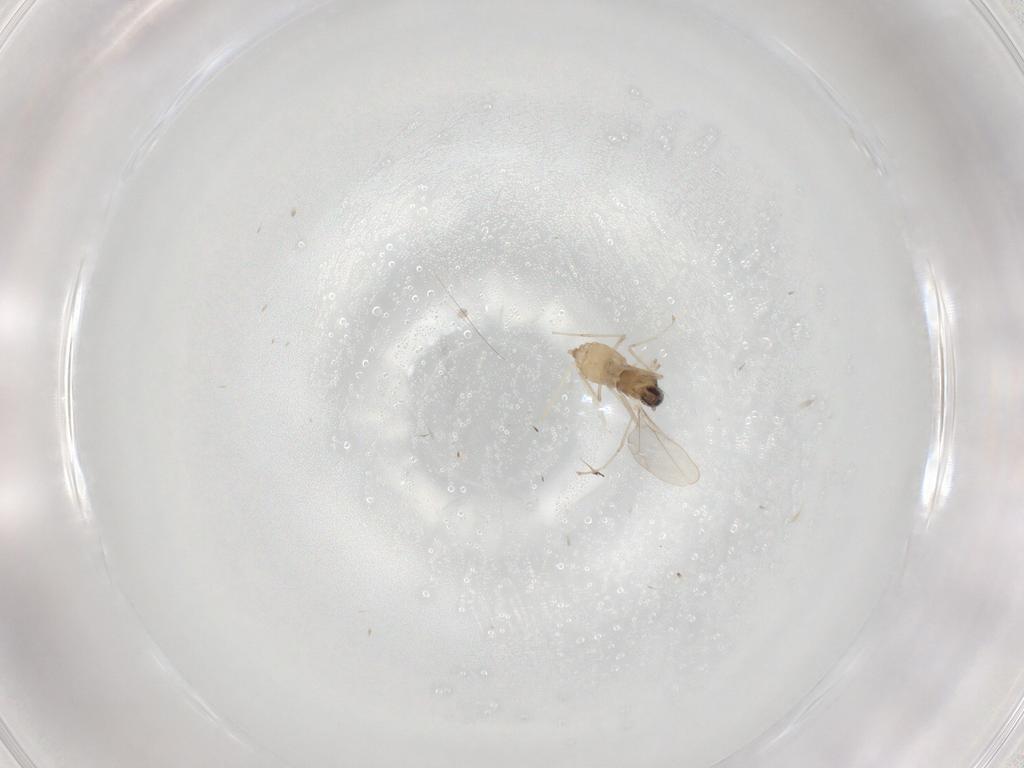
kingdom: Animalia
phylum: Arthropoda
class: Insecta
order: Diptera
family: Cecidomyiidae
